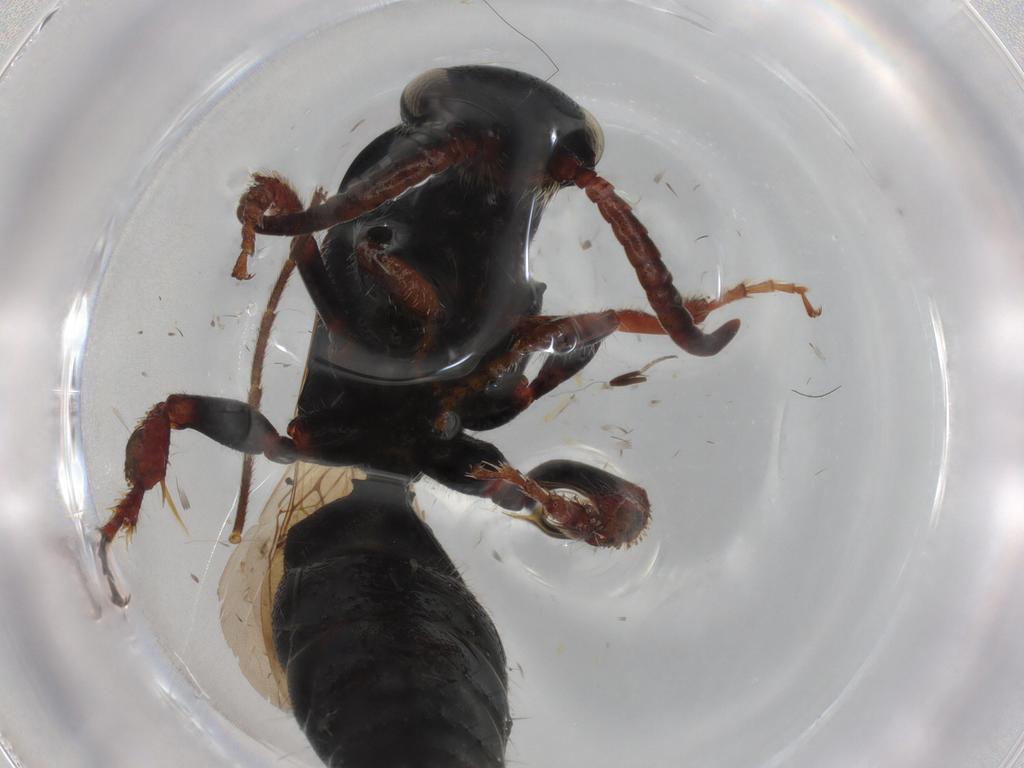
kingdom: Animalia
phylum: Arthropoda
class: Insecta
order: Hymenoptera
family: Tiphiidae
